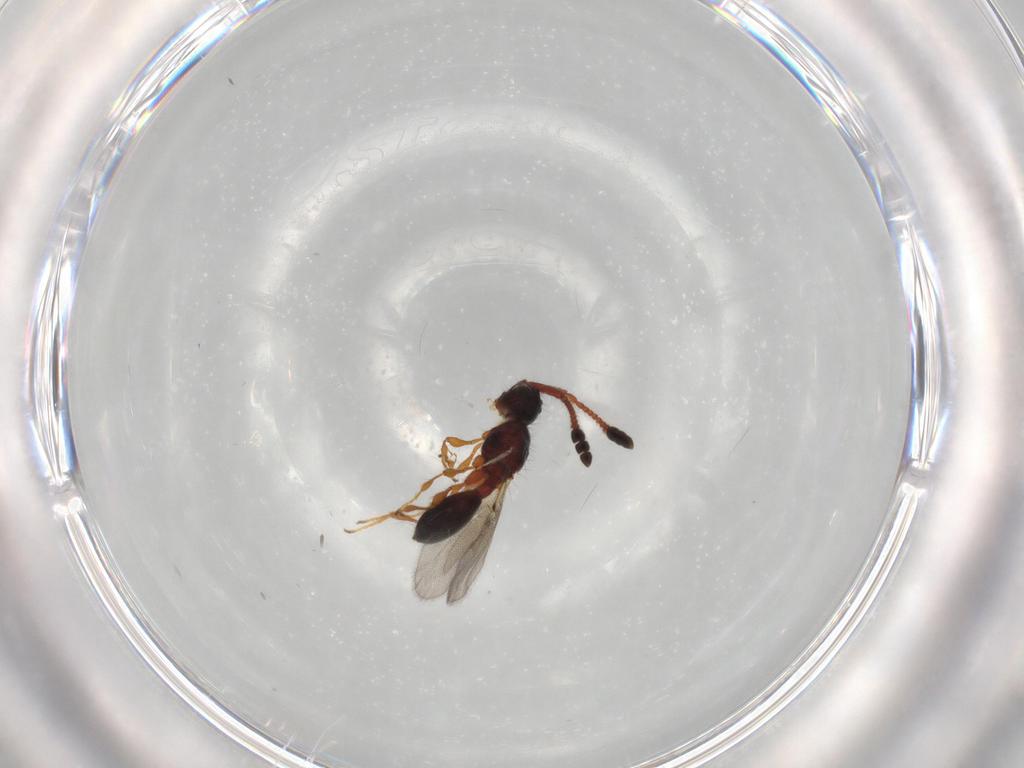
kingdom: Animalia
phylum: Arthropoda
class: Insecta
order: Hymenoptera
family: Diapriidae
